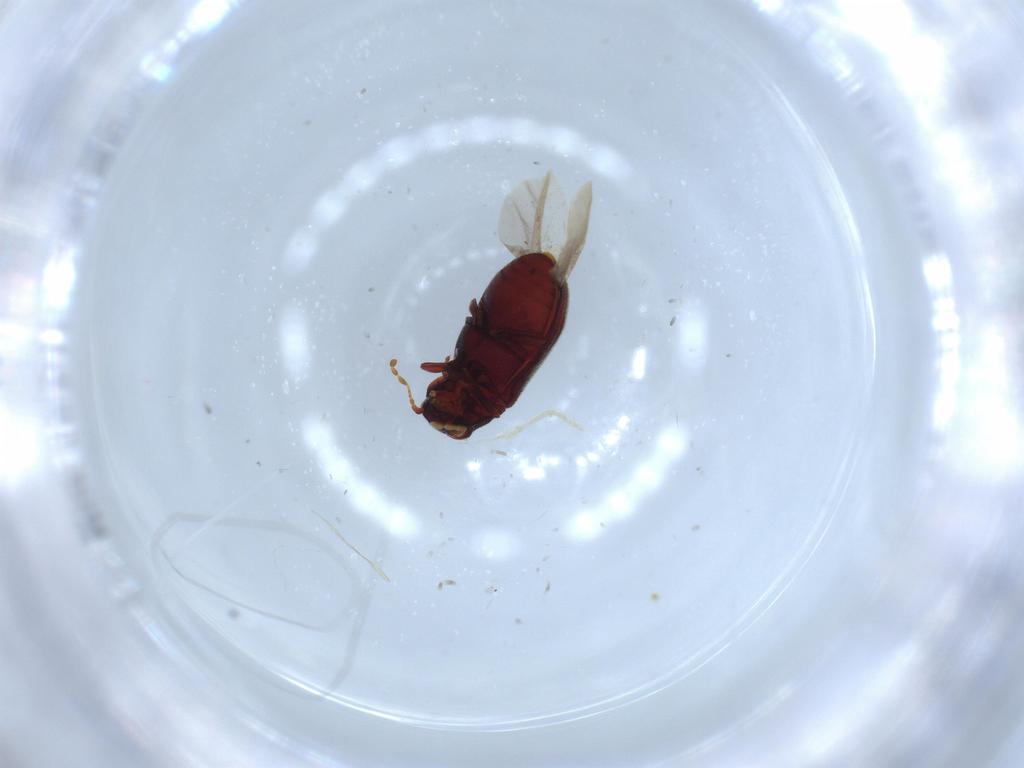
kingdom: Animalia
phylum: Arthropoda
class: Insecta
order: Coleoptera
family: Anobiidae
